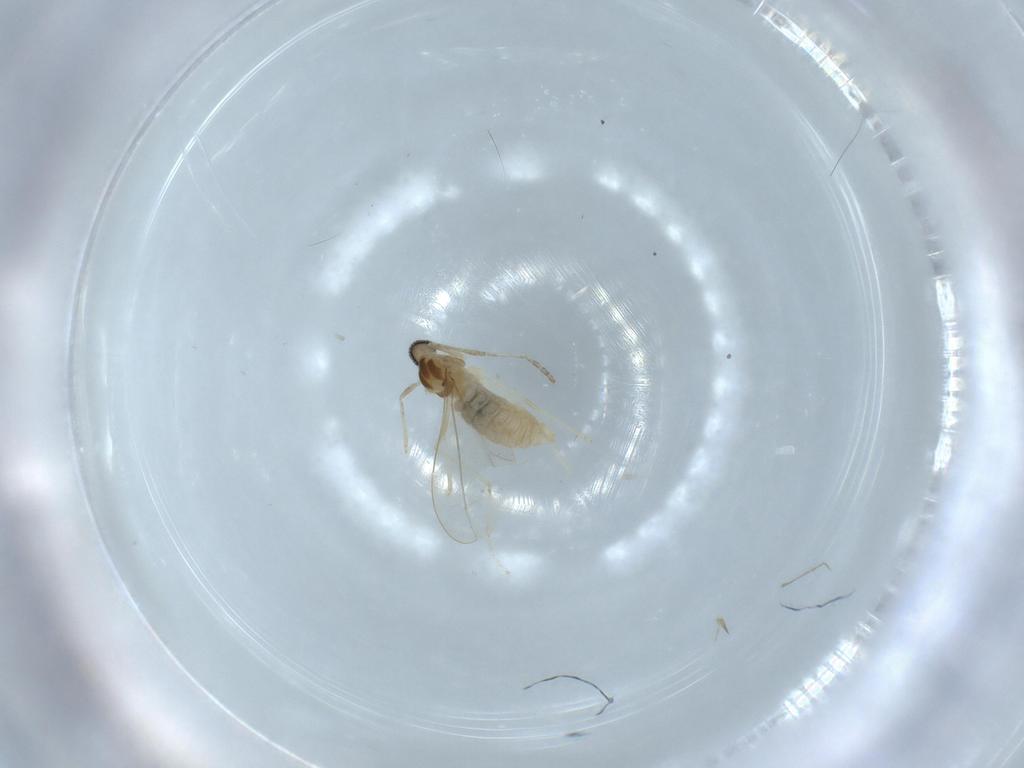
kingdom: Animalia
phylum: Arthropoda
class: Insecta
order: Diptera
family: Cecidomyiidae
